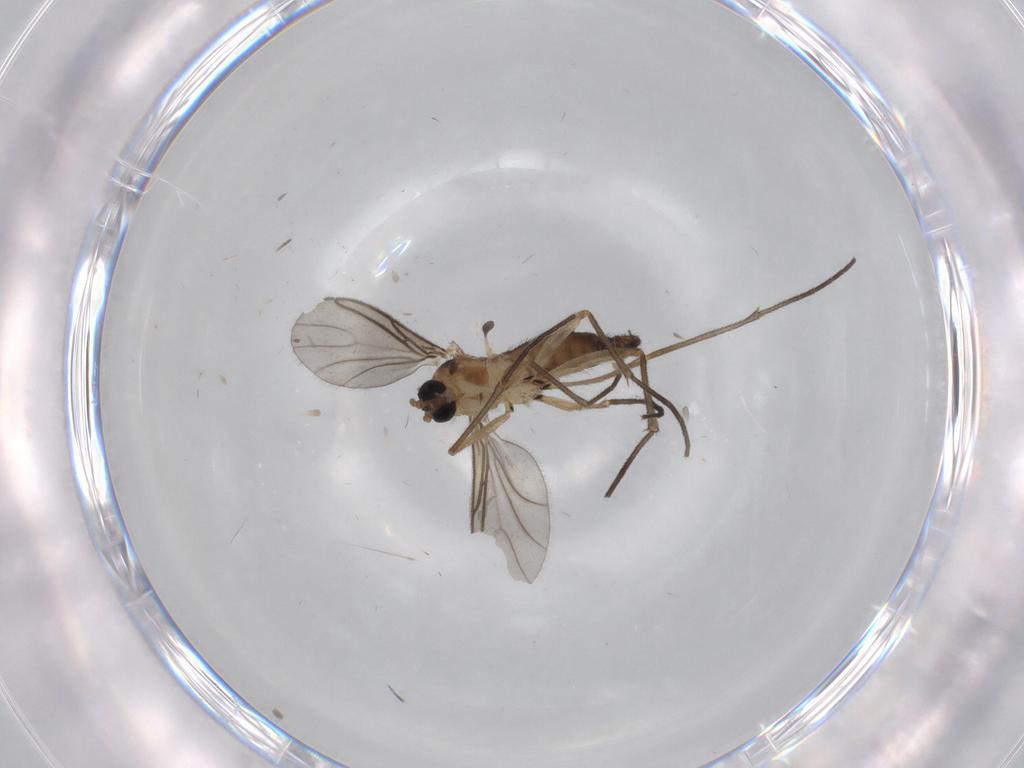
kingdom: Animalia
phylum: Arthropoda
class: Insecta
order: Diptera
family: Sciaridae
